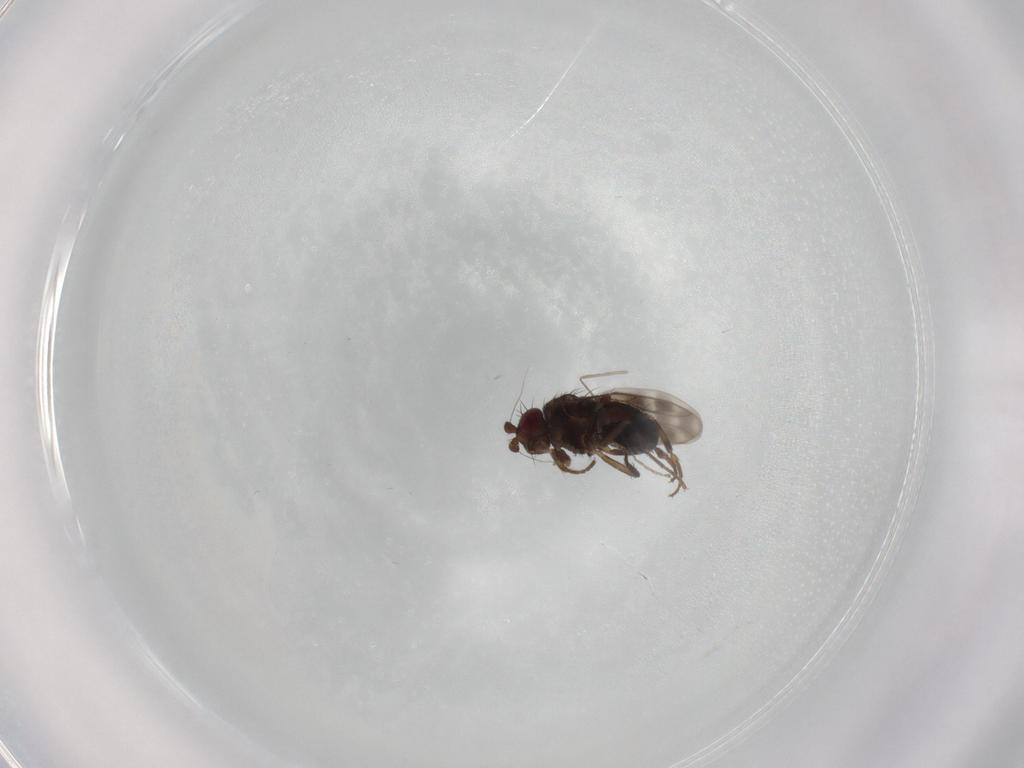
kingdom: Animalia
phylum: Arthropoda
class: Insecta
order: Diptera
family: Sphaeroceridae
